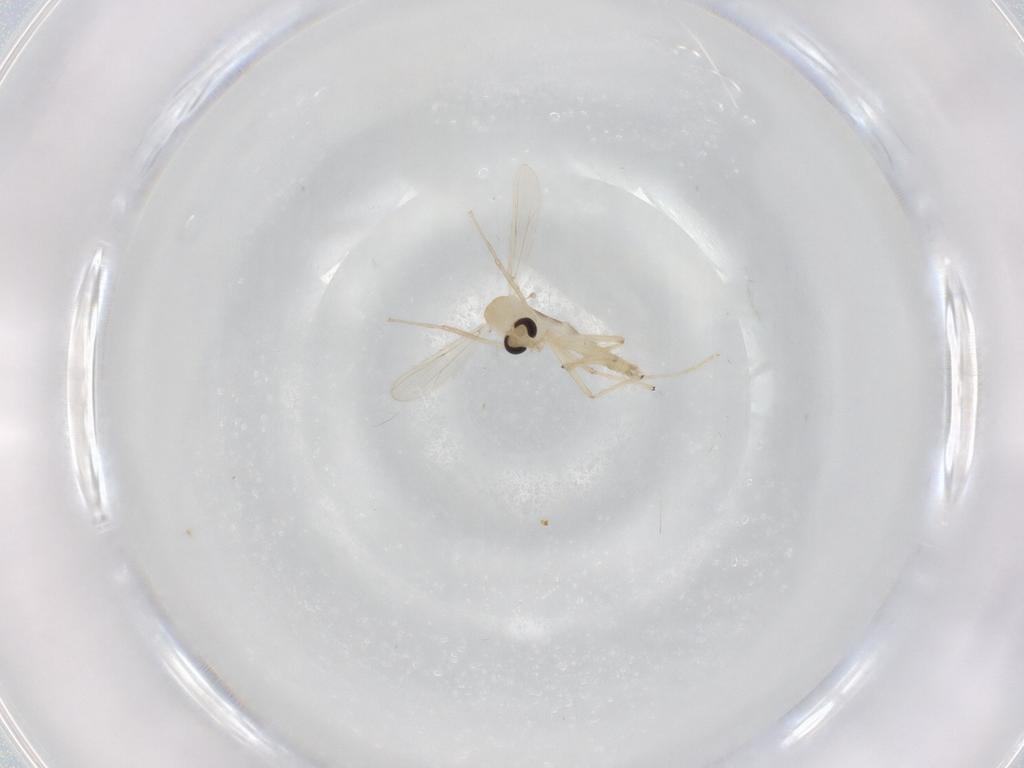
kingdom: Animalia
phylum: Arthropoda
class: Insecta
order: Diptera
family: Chironomidae
